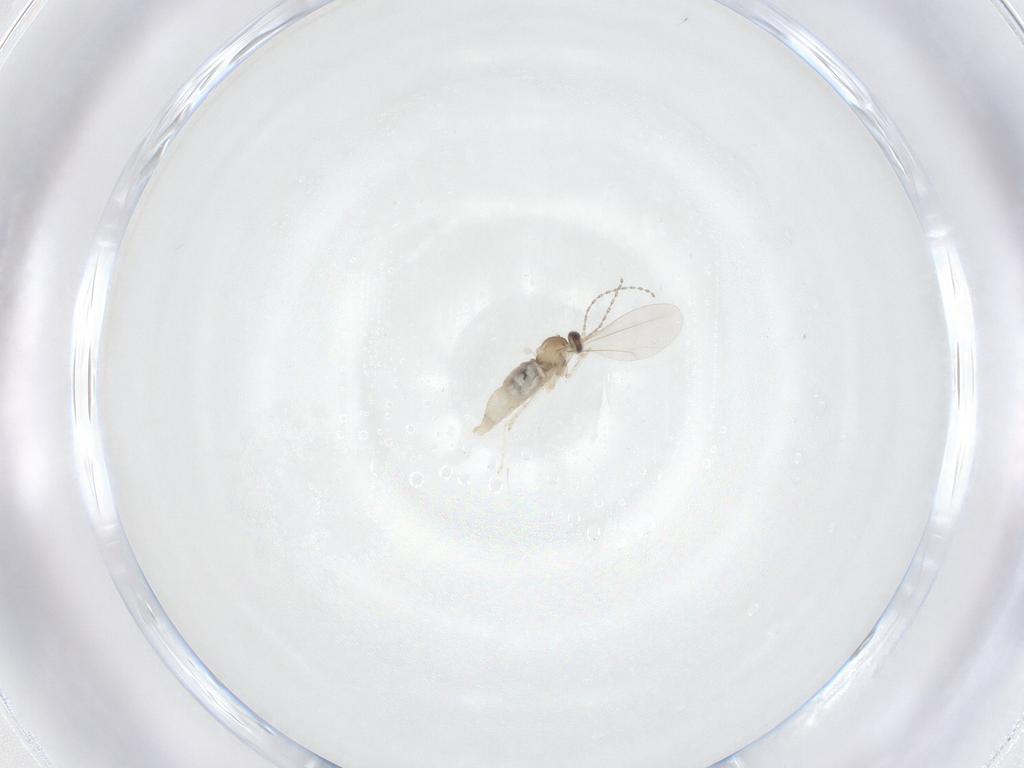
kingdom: Animalia
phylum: Arthropoda
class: Insecta
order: Diptera
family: Cecidomyiidae
